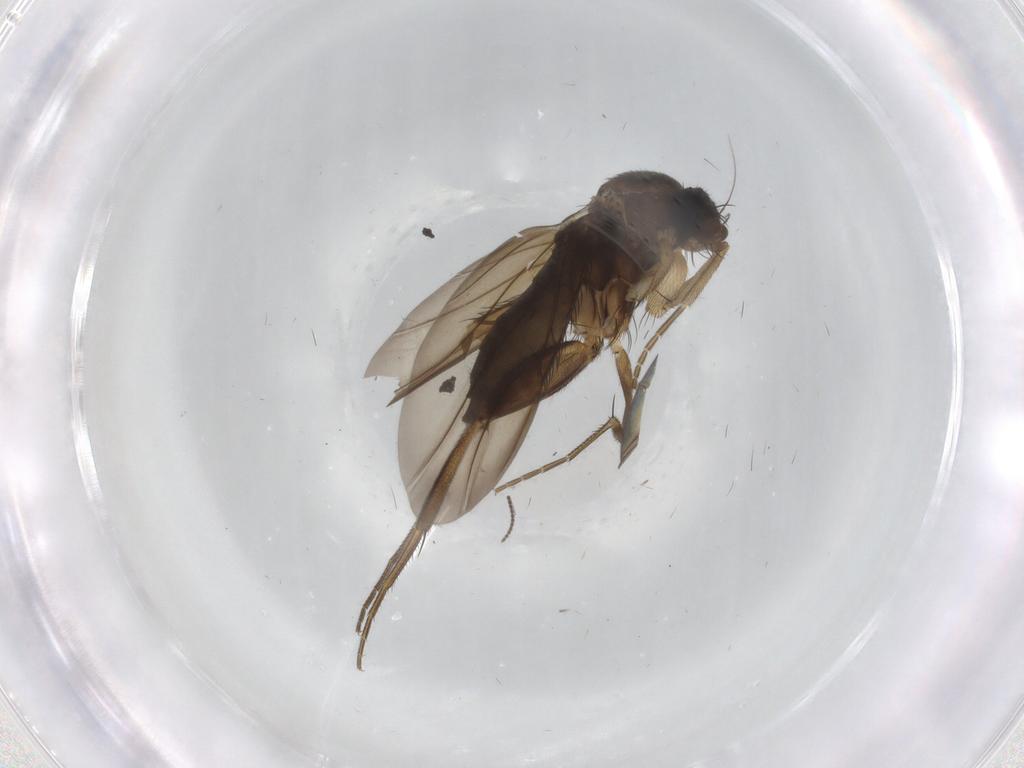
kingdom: Animalia
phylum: Arthropoda
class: Insecta
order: Diptera
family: Phoridae
